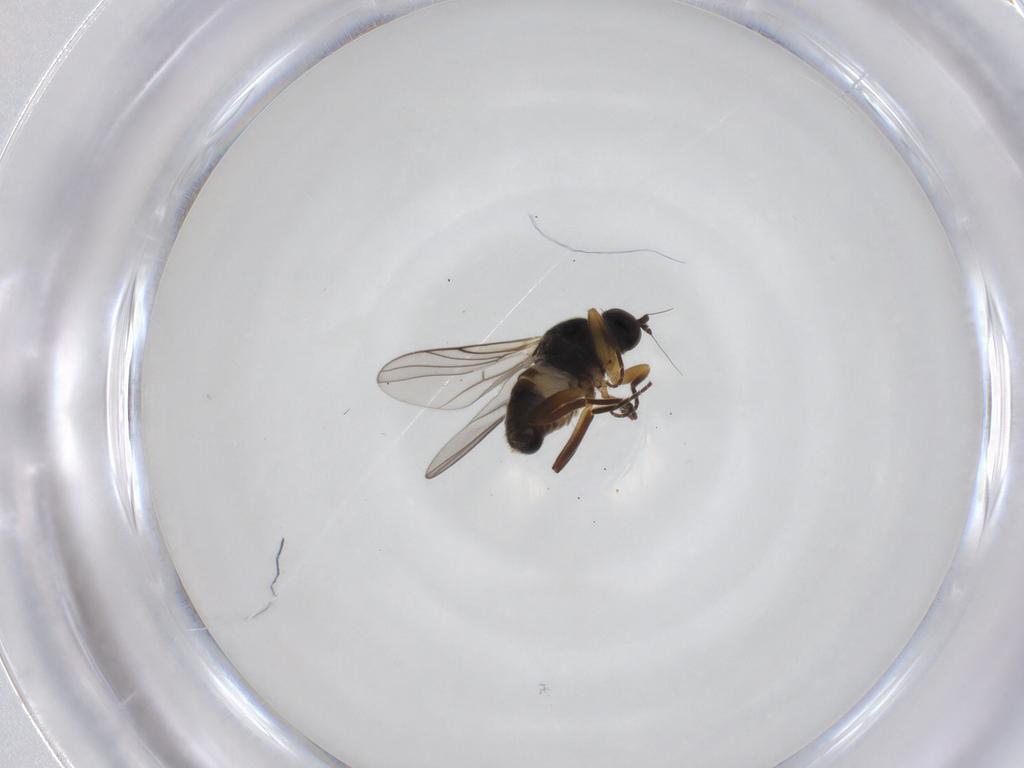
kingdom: Animalia
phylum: Arthropoda
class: Insecta
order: Diptera
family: Hybotidae
